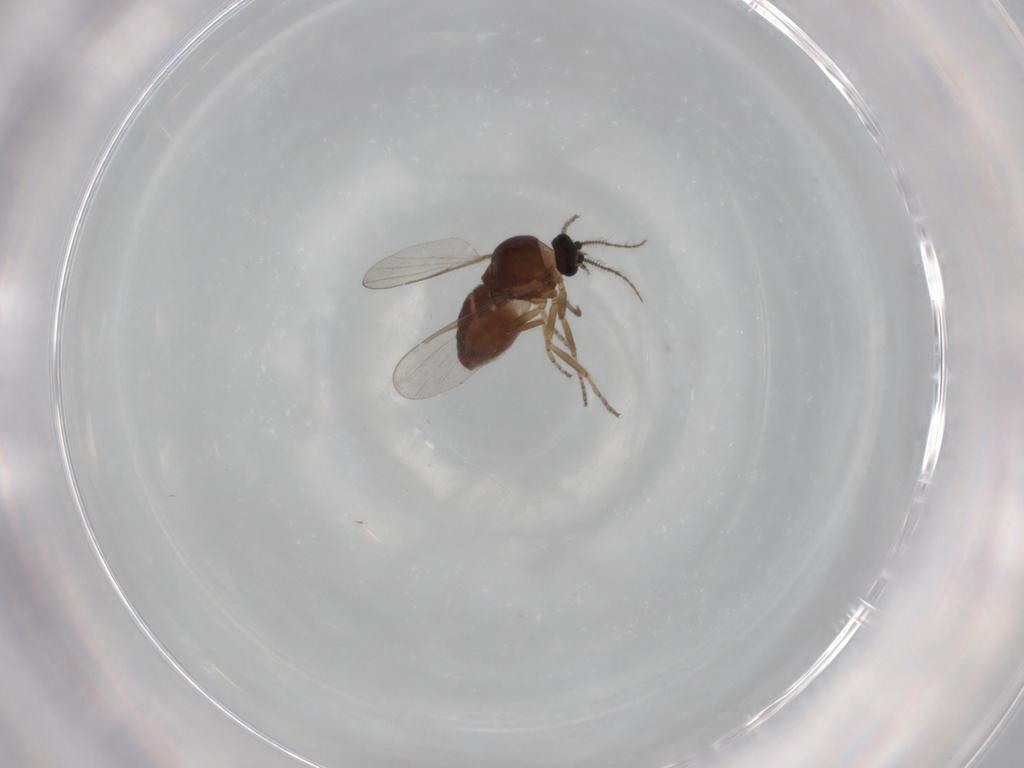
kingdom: Animalia
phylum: Arthropoda
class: Insecta
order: Diptera
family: Ceratopogonidae
